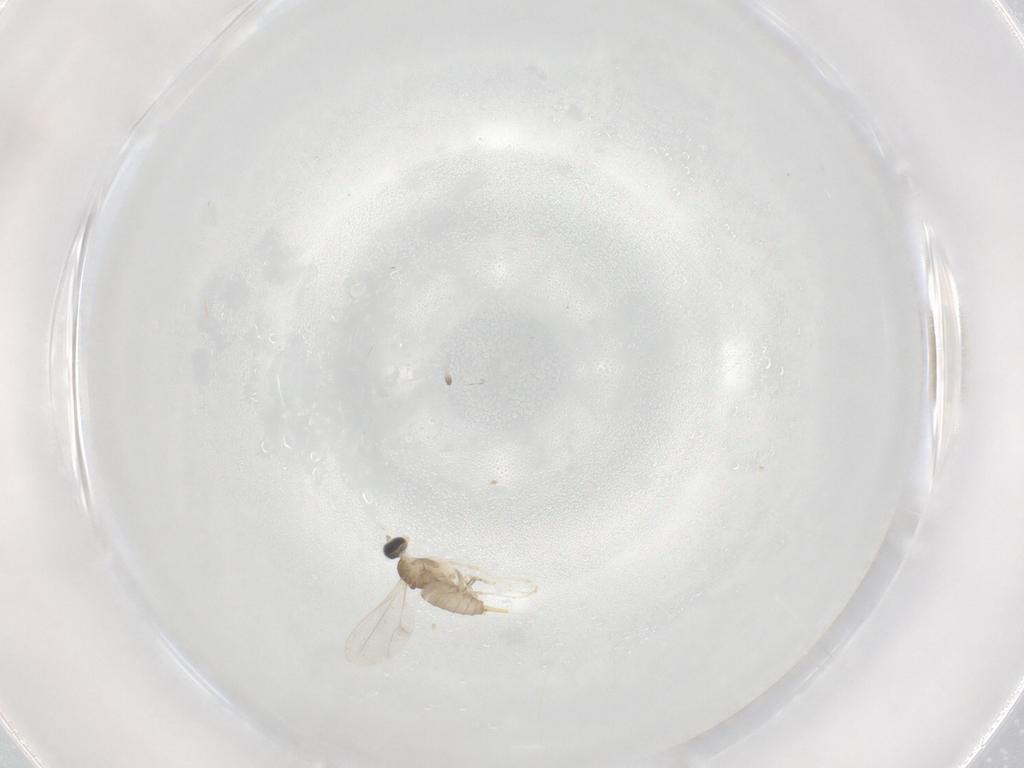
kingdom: Animalia
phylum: Arthropoda
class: Insecta
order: Diptera
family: Cecidomyiidae
